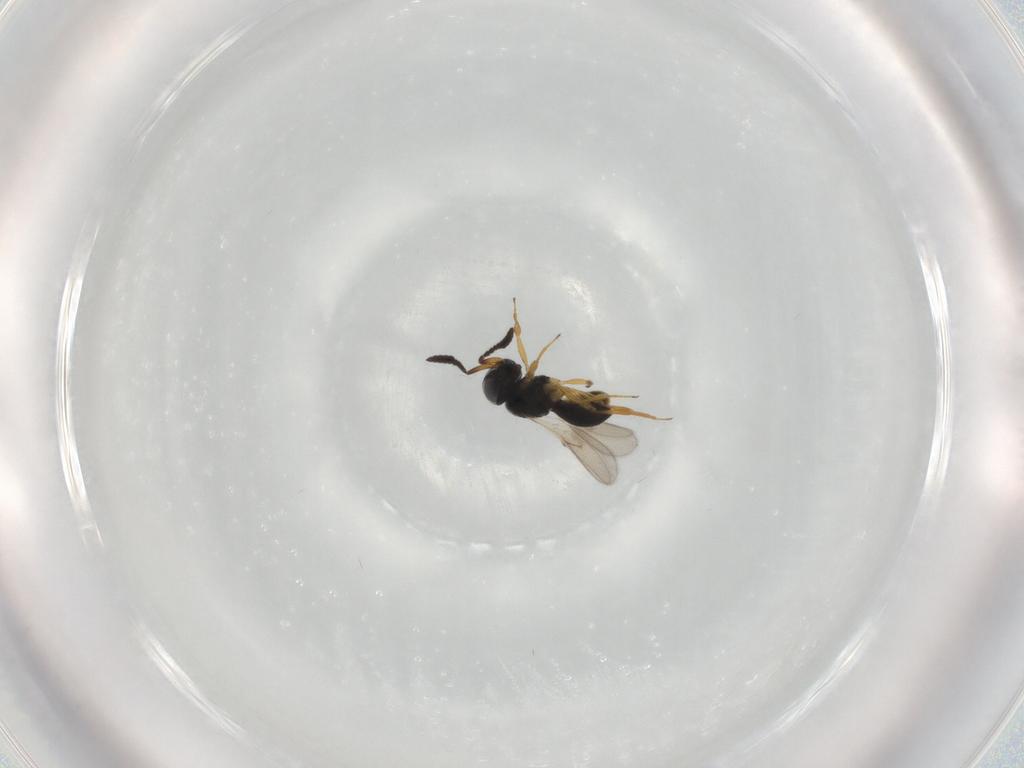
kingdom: Animalia
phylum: Arthropoda
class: Insecta
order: Hymenoptera
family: Scelionidae
